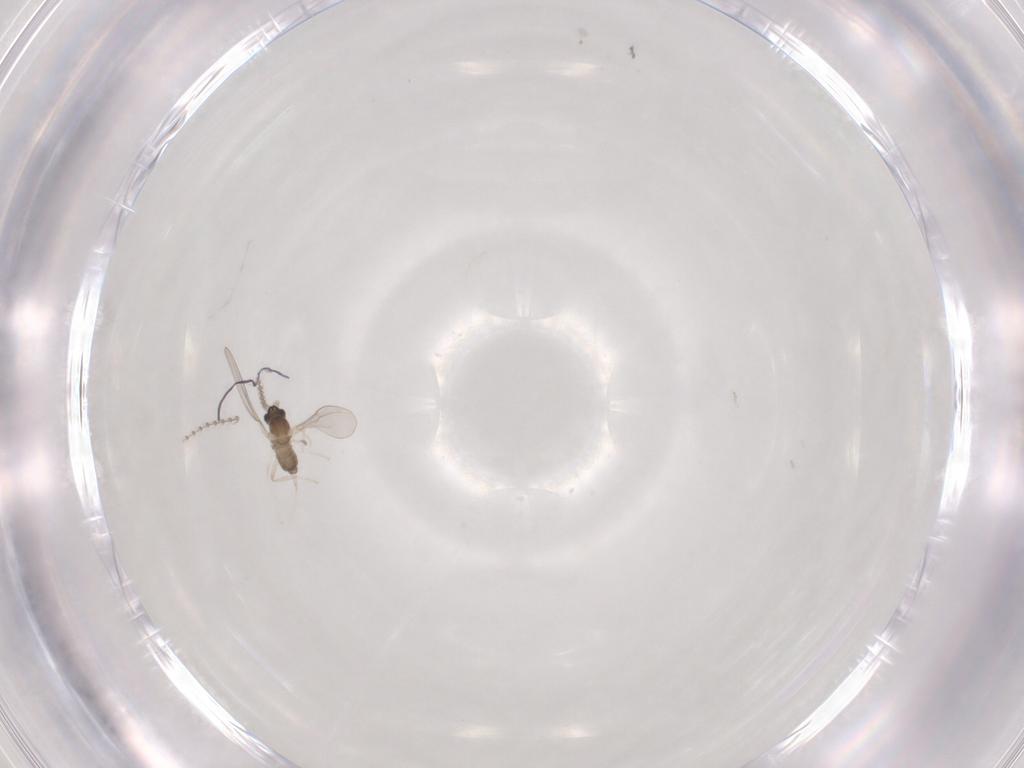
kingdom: Animalia
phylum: Arthropoda
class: Insecta
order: Diptera
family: Cecidomyiidae
